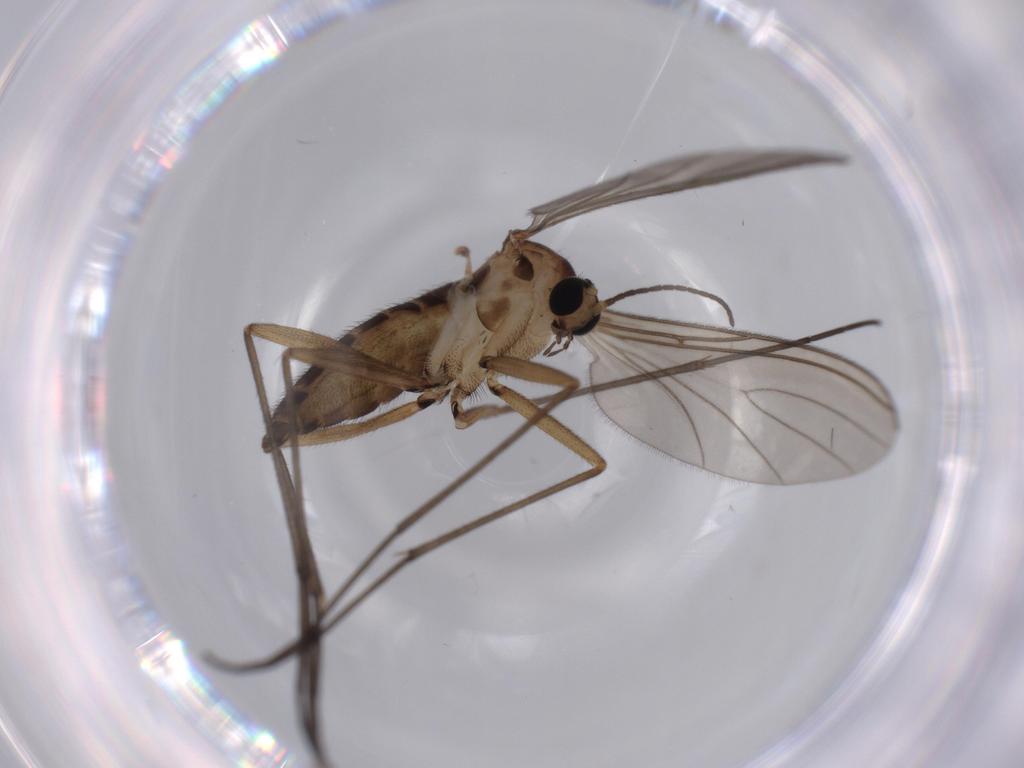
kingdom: Animalia
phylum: Arthropoda
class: Insecta
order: Diptera
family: Sciaridae
